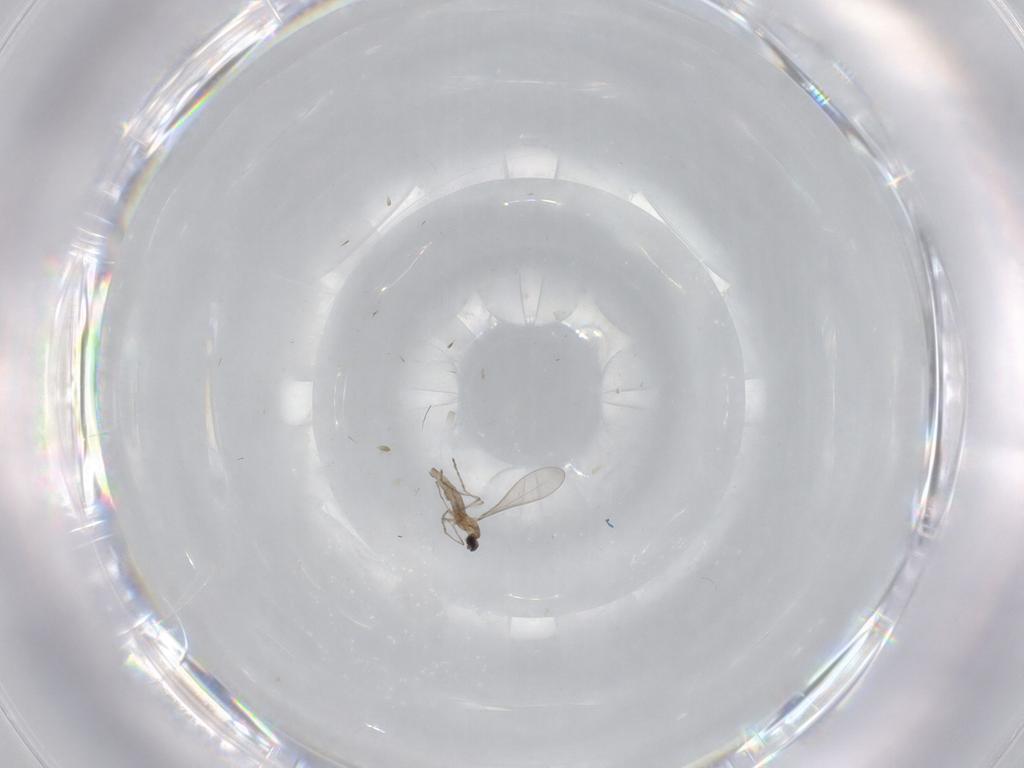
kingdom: Animalia
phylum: Arthropoda
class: Insecta
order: Diptera
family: Cecidomyiidae
